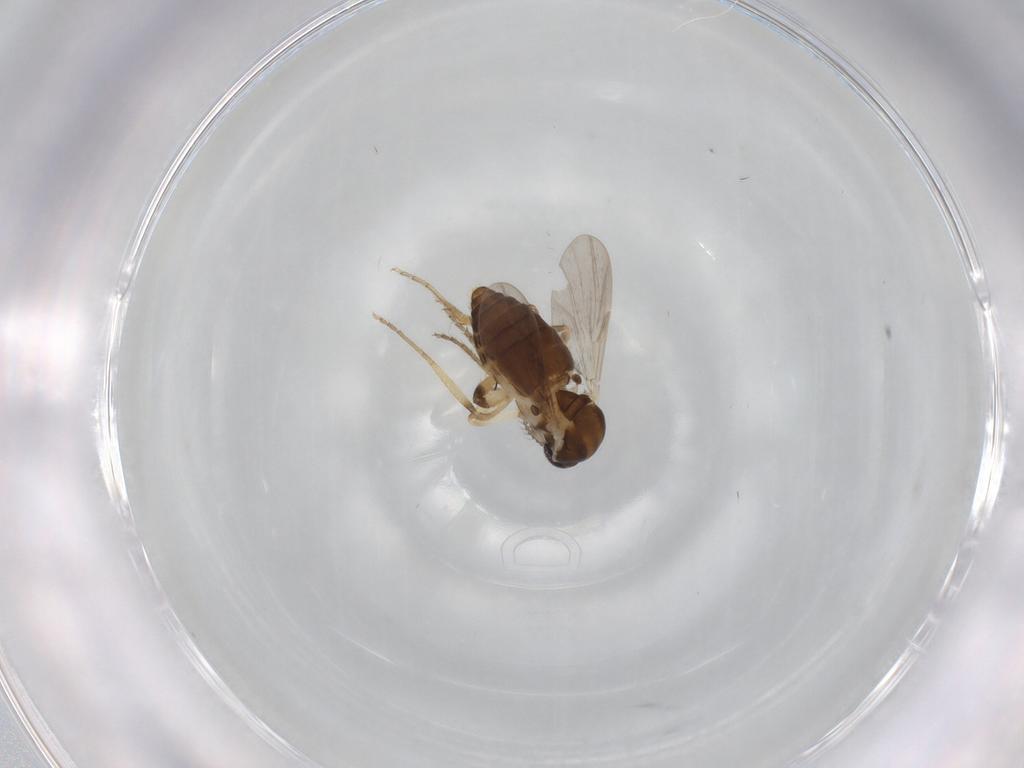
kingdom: Animalia
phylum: Arthropoda
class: Insecta
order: Diptera
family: Ceratopogonidae
